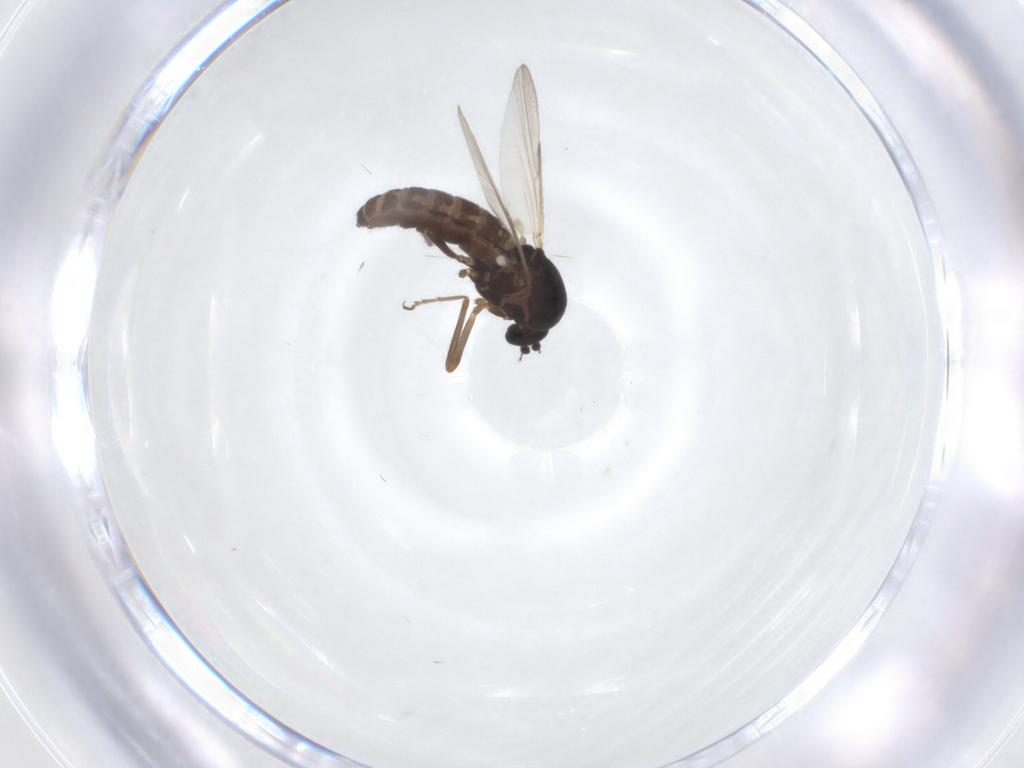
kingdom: Animalia
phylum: Arthropoda
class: Insecta
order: Diptera
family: Ceratopogonidae
